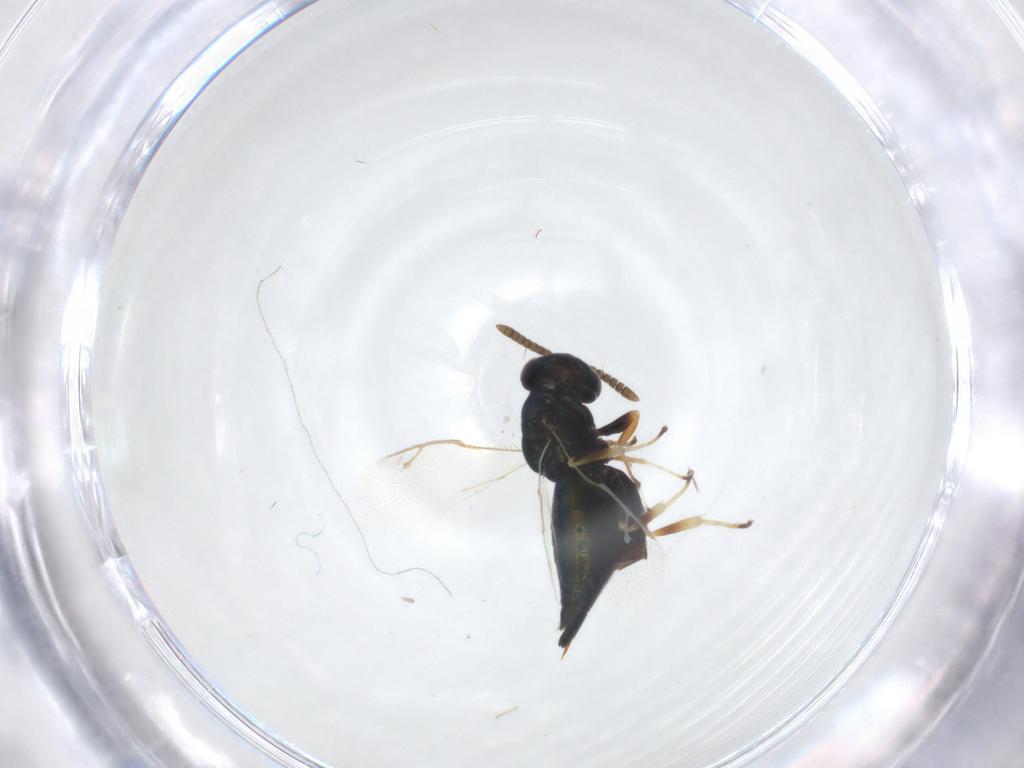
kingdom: Animalia
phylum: Arthropoda
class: Insecta
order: Hymenoptera
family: Pteromalidae
